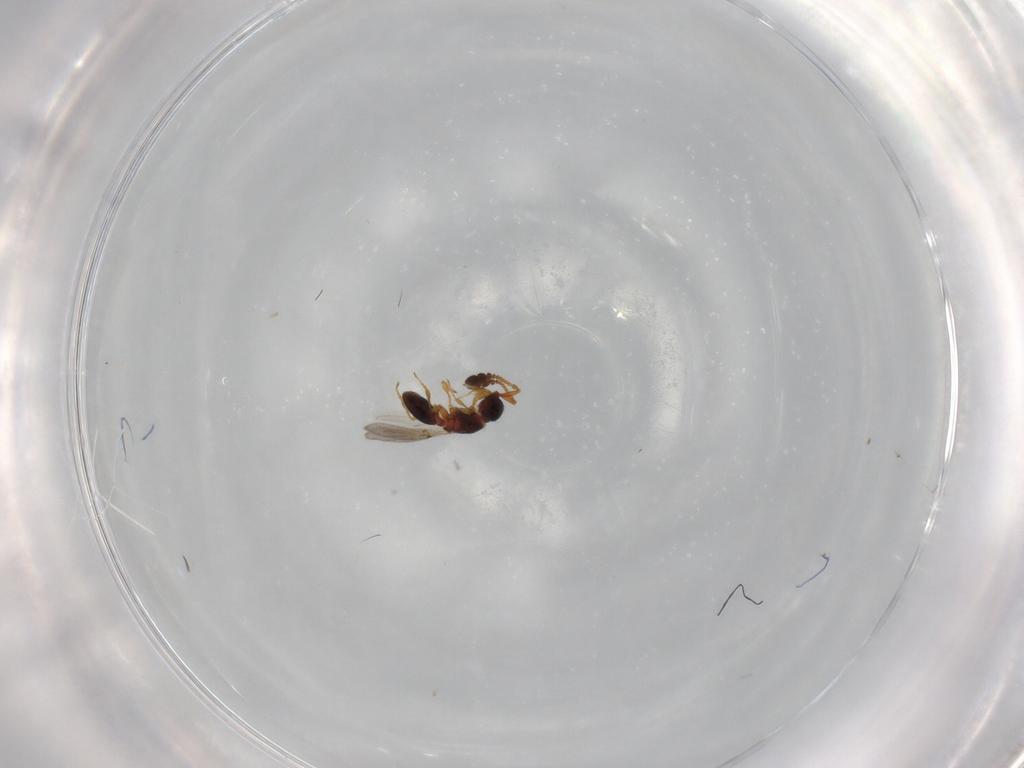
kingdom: Animalia
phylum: Arthropoda
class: Insecta
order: Hymenoptera
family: Diapriidae
